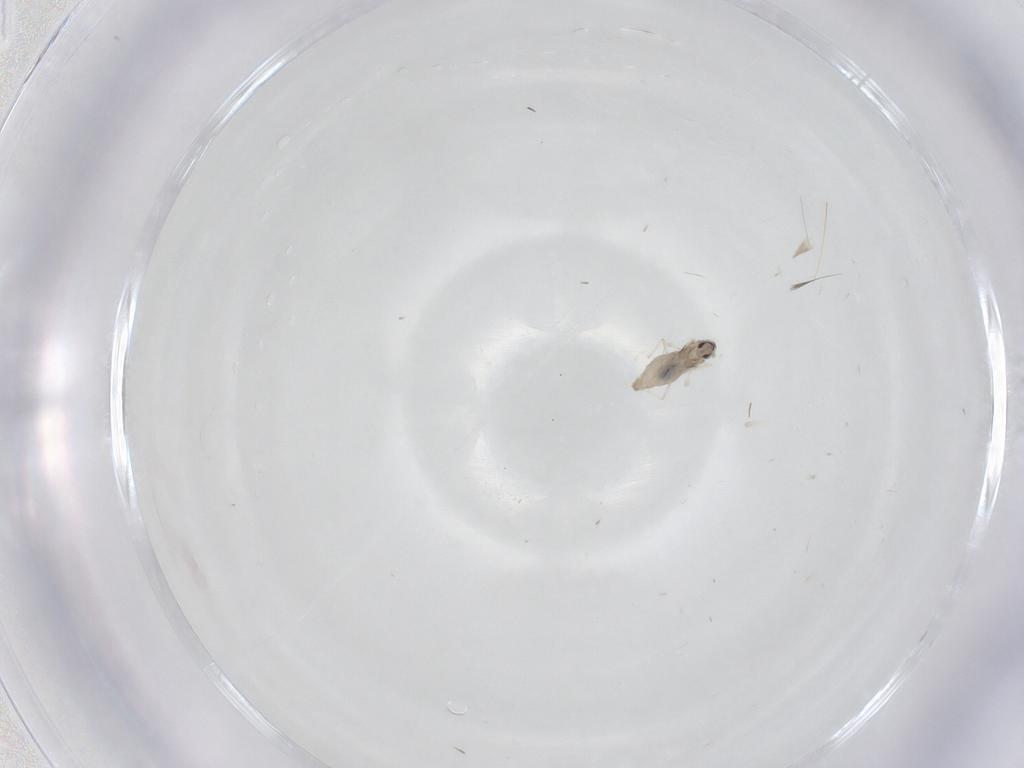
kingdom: Animalia
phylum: Arthropoda
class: Insecta
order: Diptera
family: Cecidomyiidae
